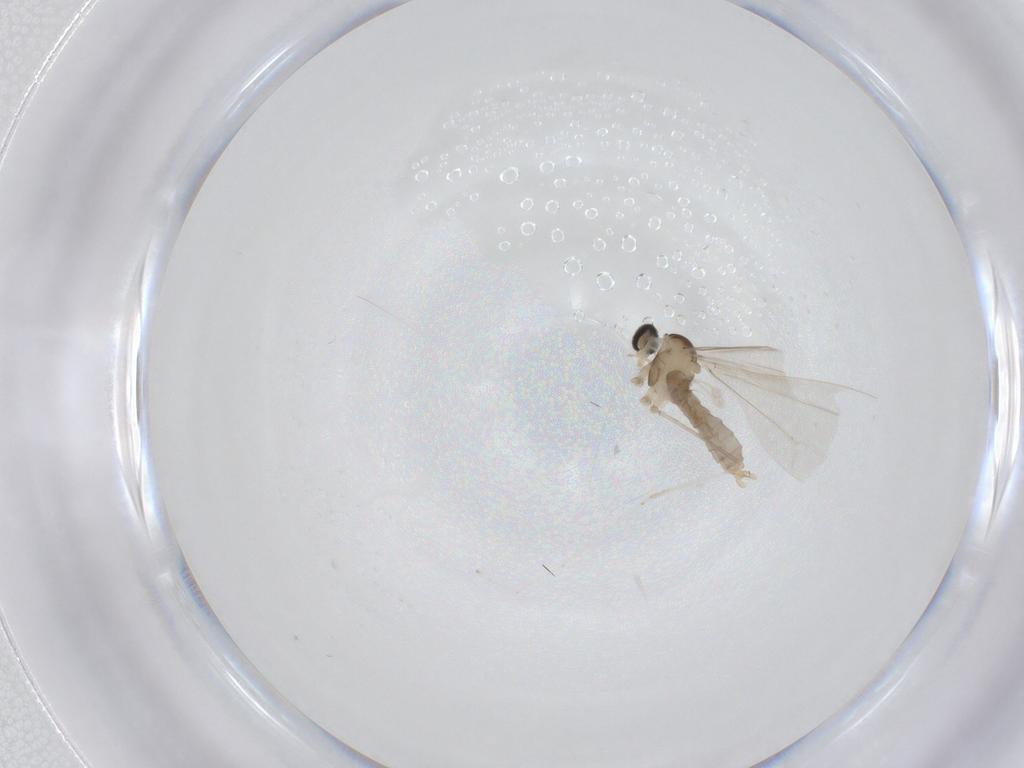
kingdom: Animalia
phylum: Arthropoda
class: Insecta
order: Diptera
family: Cecidomyiidae
